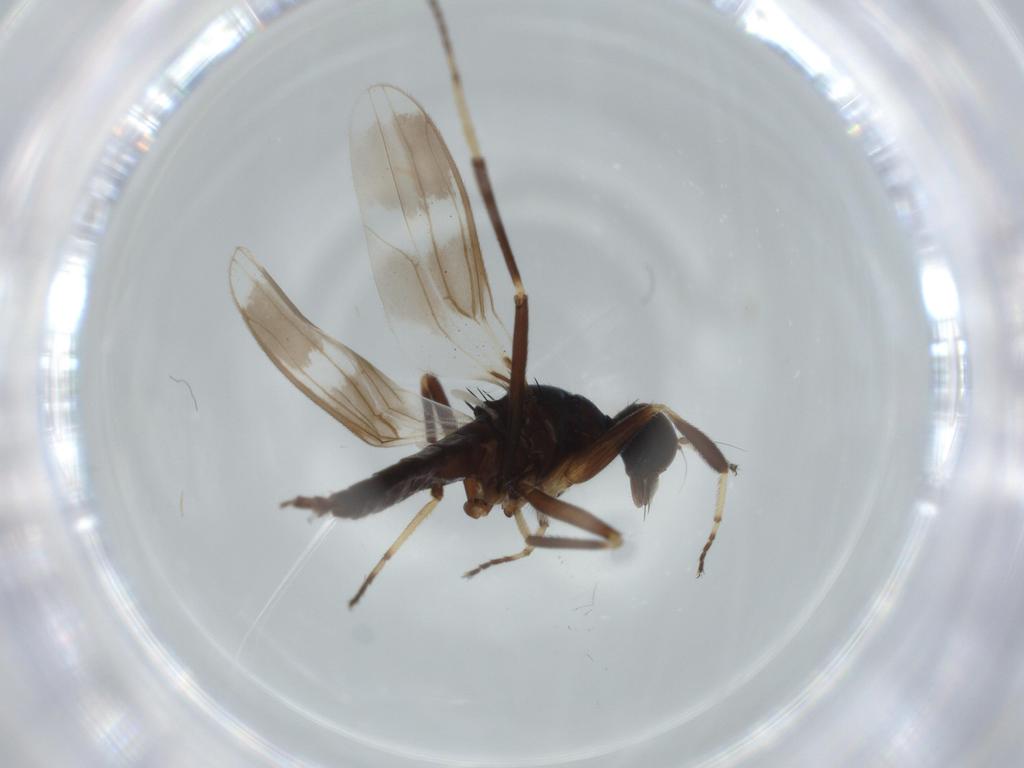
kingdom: Animalia
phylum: Arthropoda
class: Insecta
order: Diptera
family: Hybotidae
